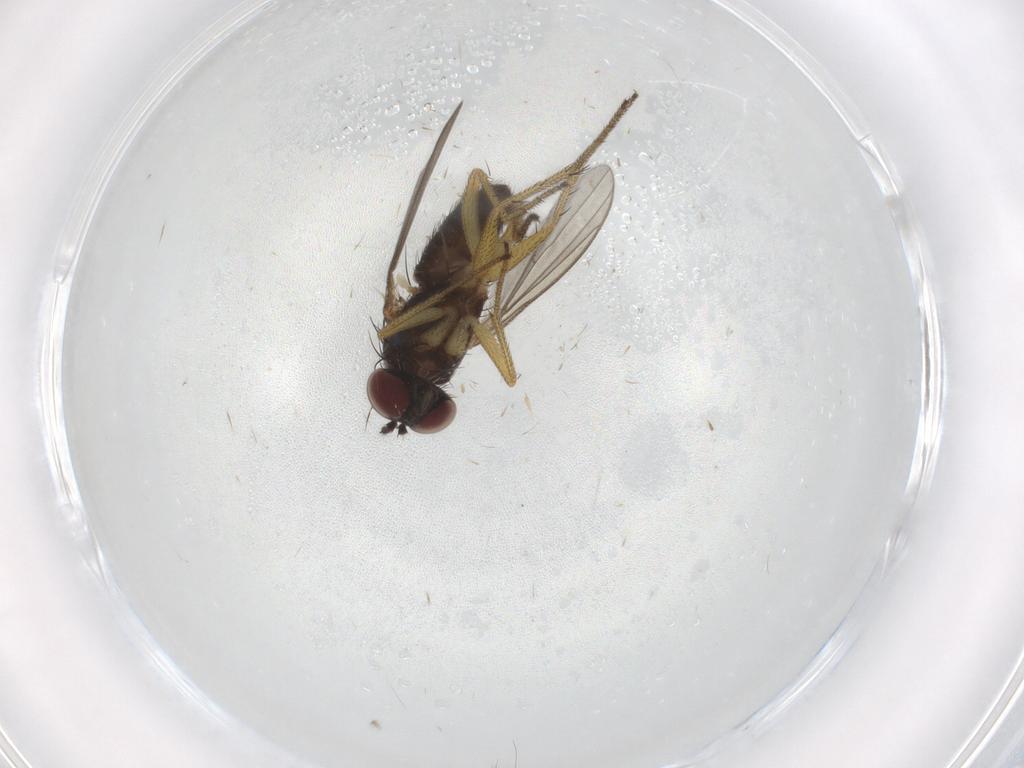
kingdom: Animalia
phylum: Arthropoda
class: Insecta
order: Diptera
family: Dolichopodidae
